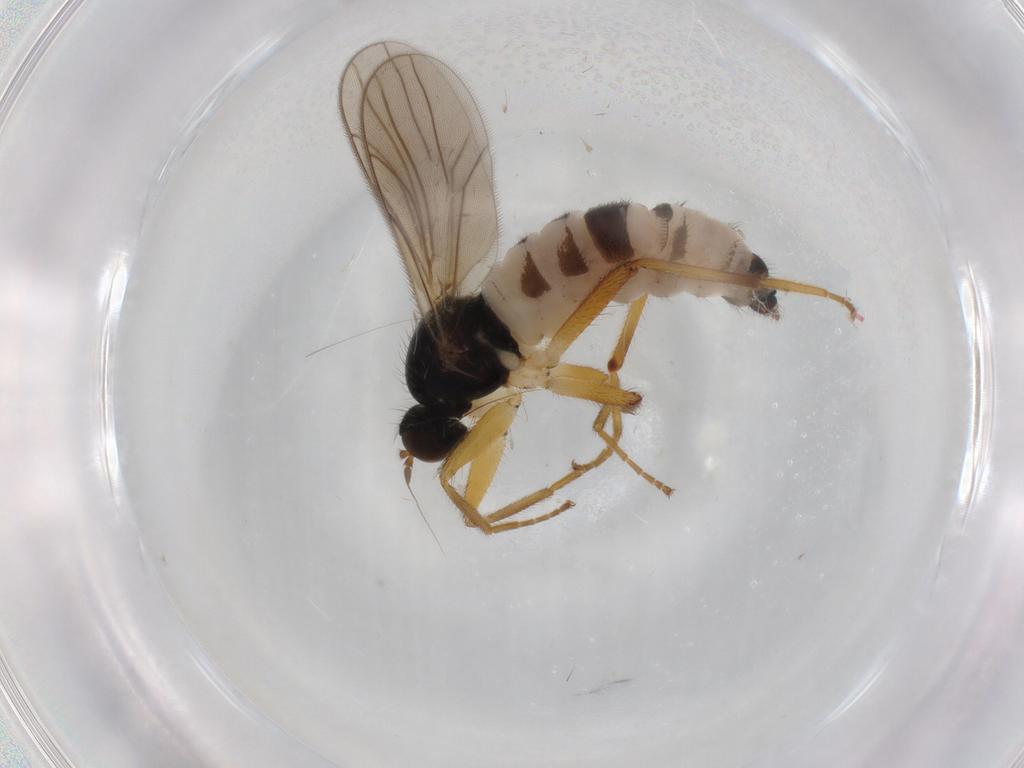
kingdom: Animalia
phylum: Arthropoda
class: Insecta
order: Diptera
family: Hybotidae
